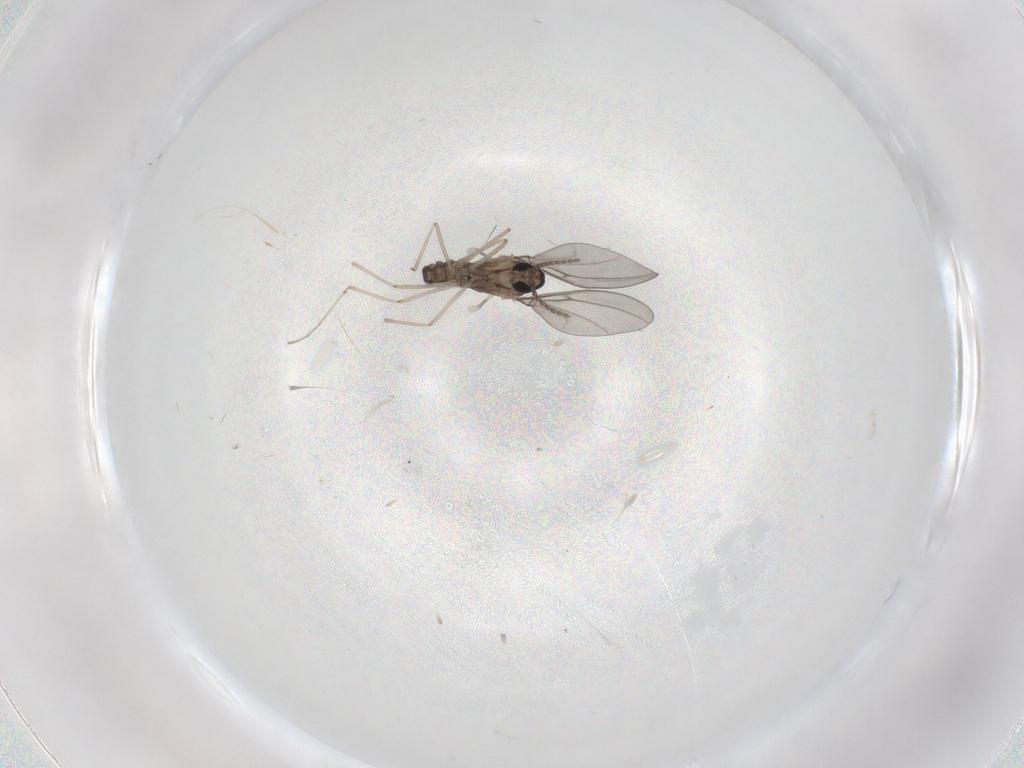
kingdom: Animalia
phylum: Arthropoda
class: Insecta
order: Diptera
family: Cecidomyiidae
